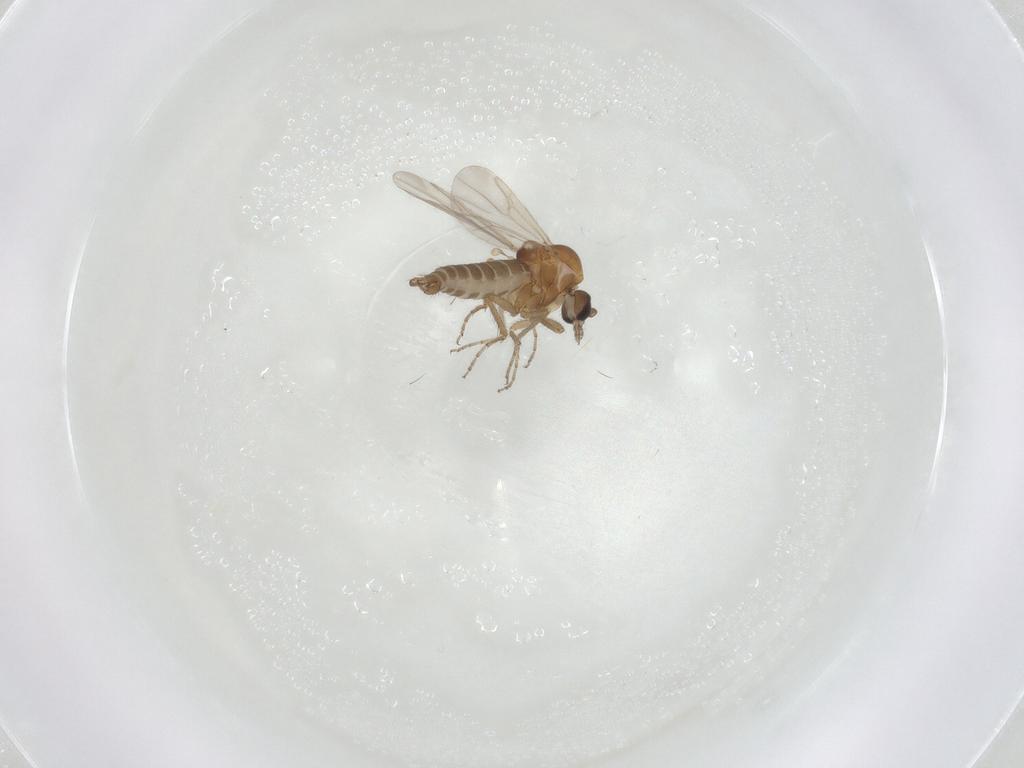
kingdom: Animalia
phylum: Arthropoda
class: Insecta
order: Diptera
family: Ceratopogonidae
